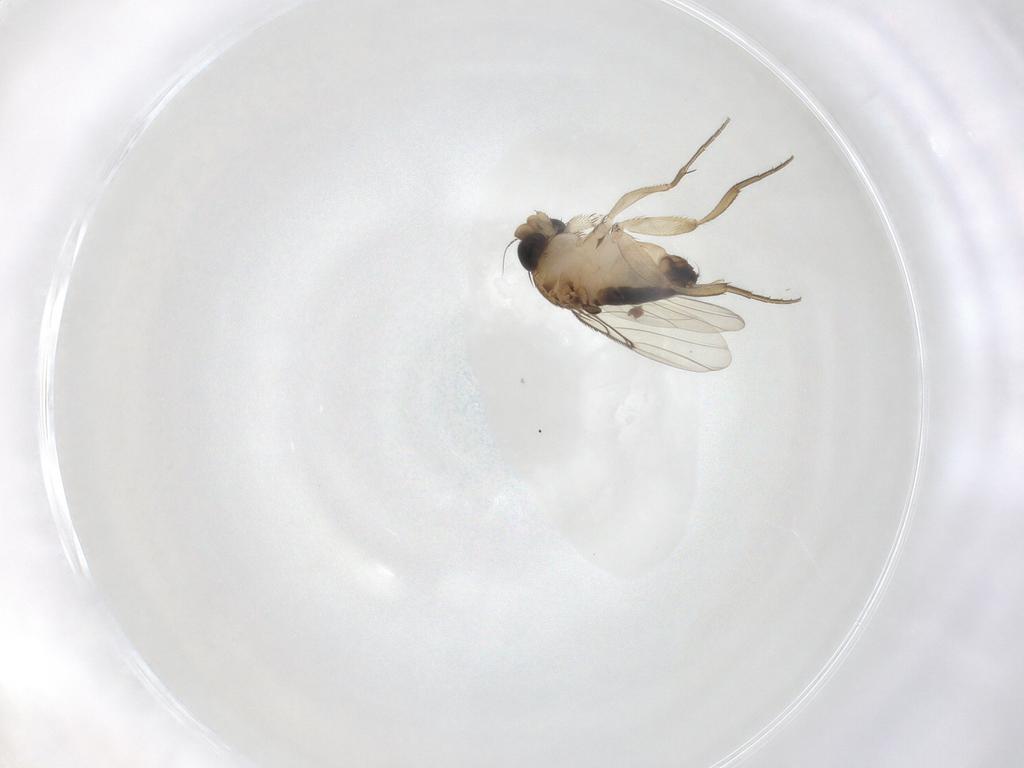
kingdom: Animalia
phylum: Arthropoda
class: Insecta
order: Diptera
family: Phoridae
